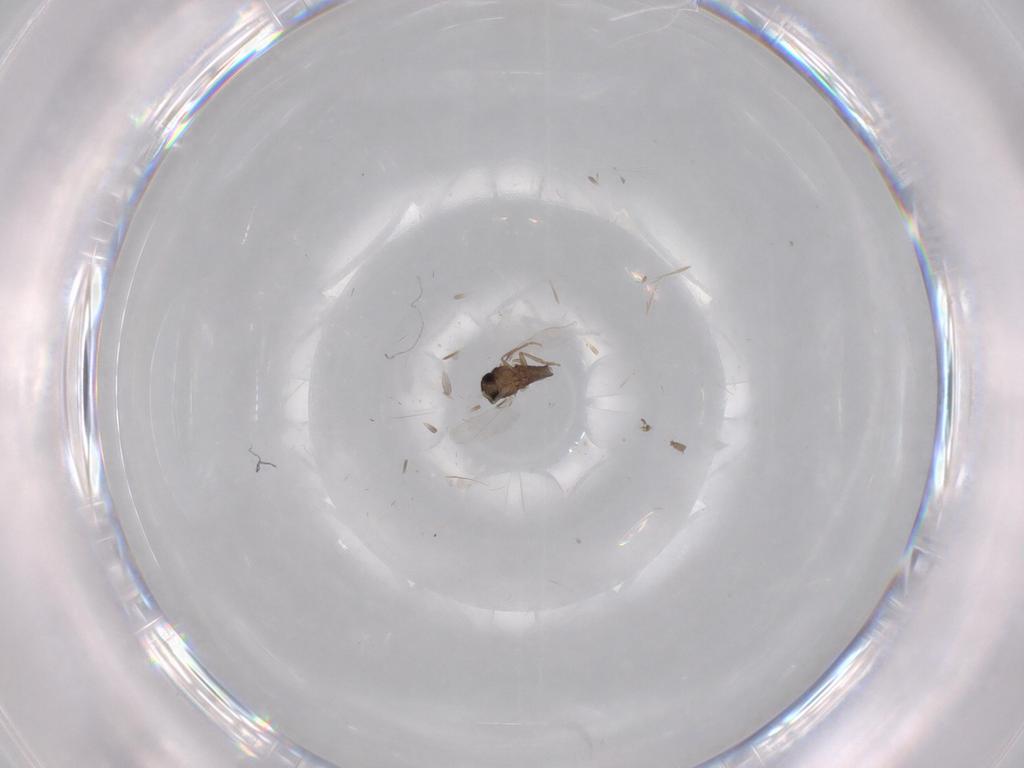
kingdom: Animalia
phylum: Arthropoda
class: Insecta
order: Diptera
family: Phoridae
